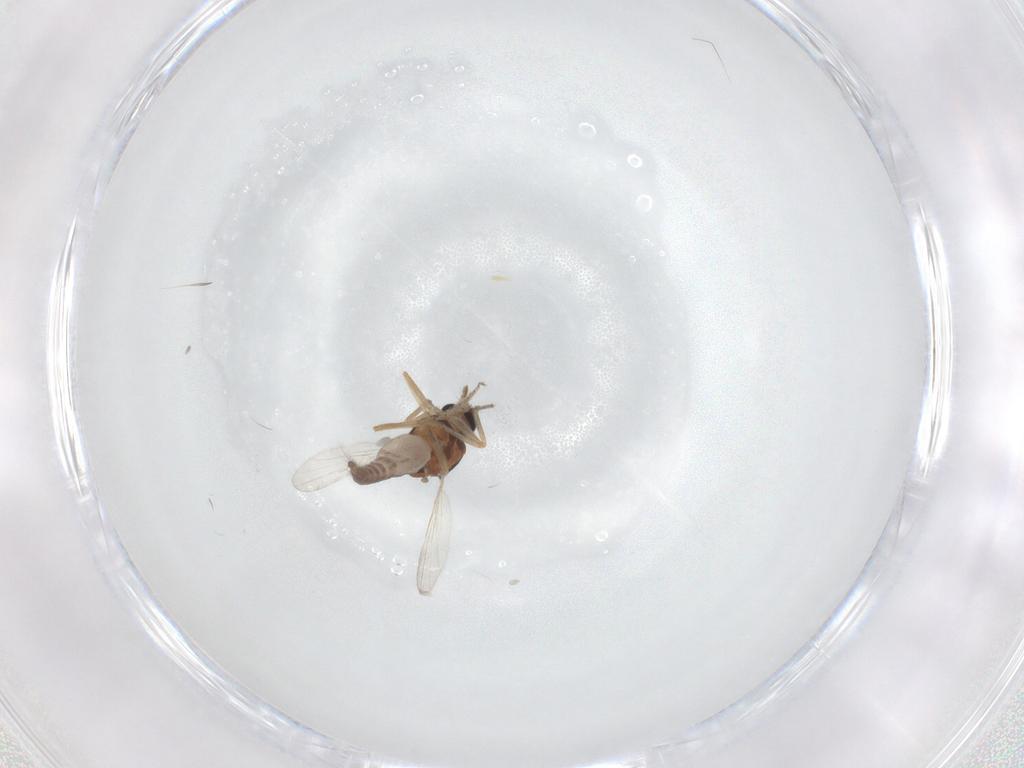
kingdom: Animalia
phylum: Arthropoda
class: Insecta
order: Diptera
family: Ceratopogonidae
